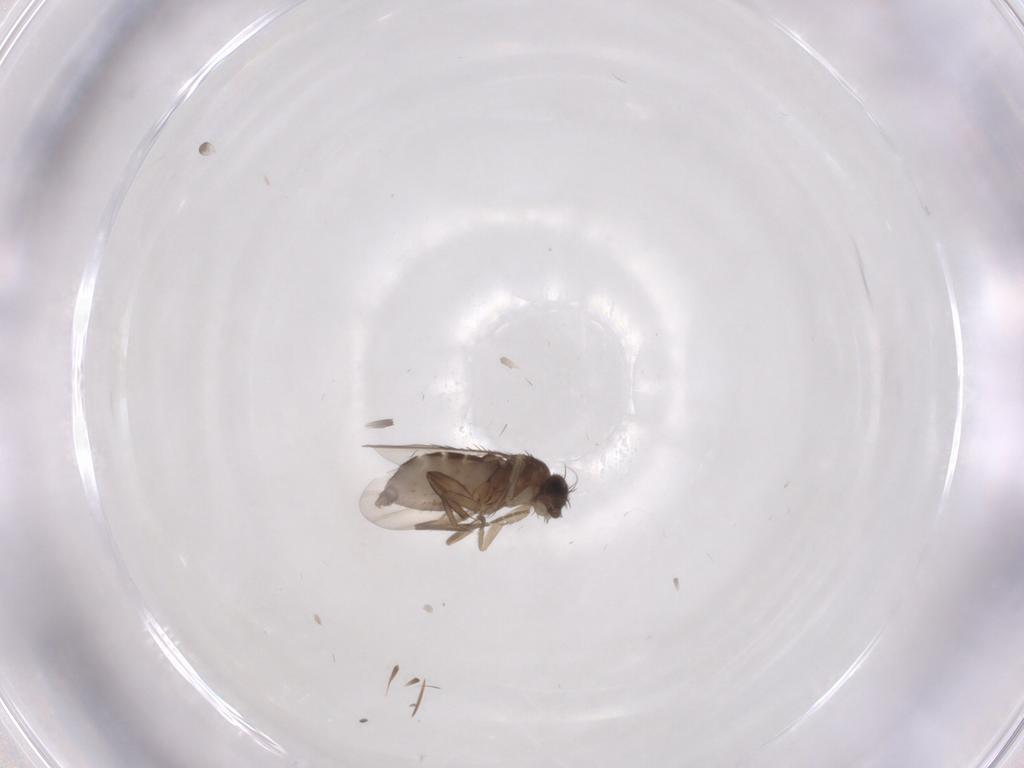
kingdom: Animalia
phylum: Arthropoda
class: Insecta
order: Diptera
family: Phoridae
